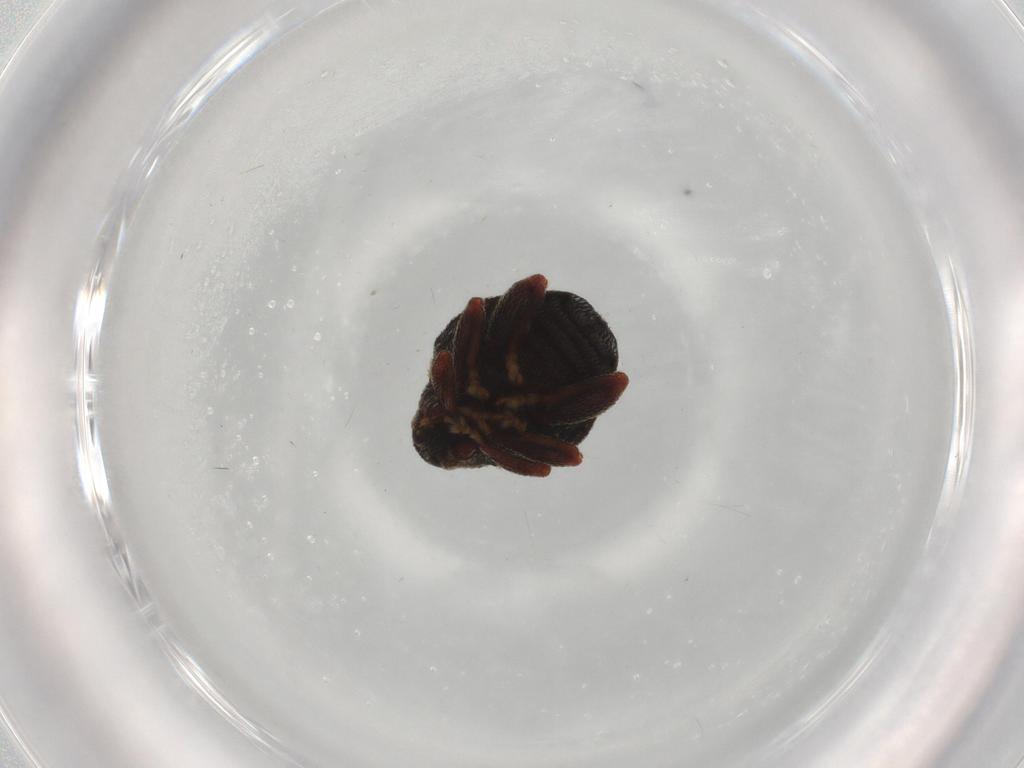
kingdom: Animalia
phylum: Arthropoda
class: Insecta
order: Coleoptera
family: Curculionidae
